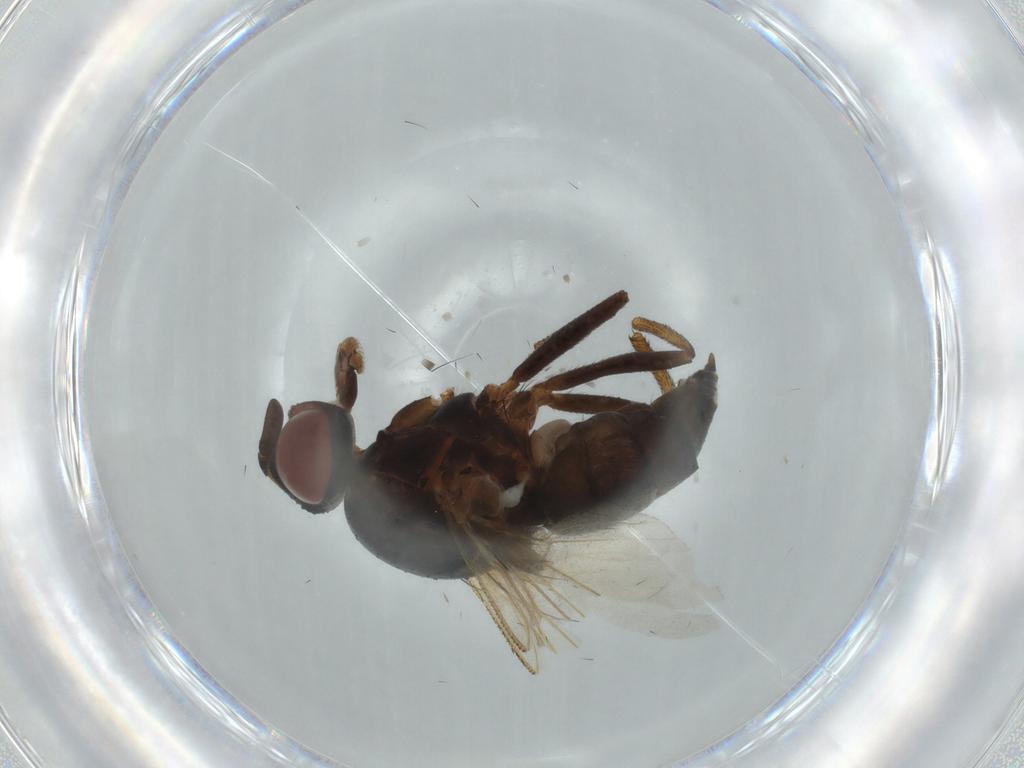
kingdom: Animalia
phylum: Arthropoda
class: Insecta
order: Diptera
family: Anthomyiidae
